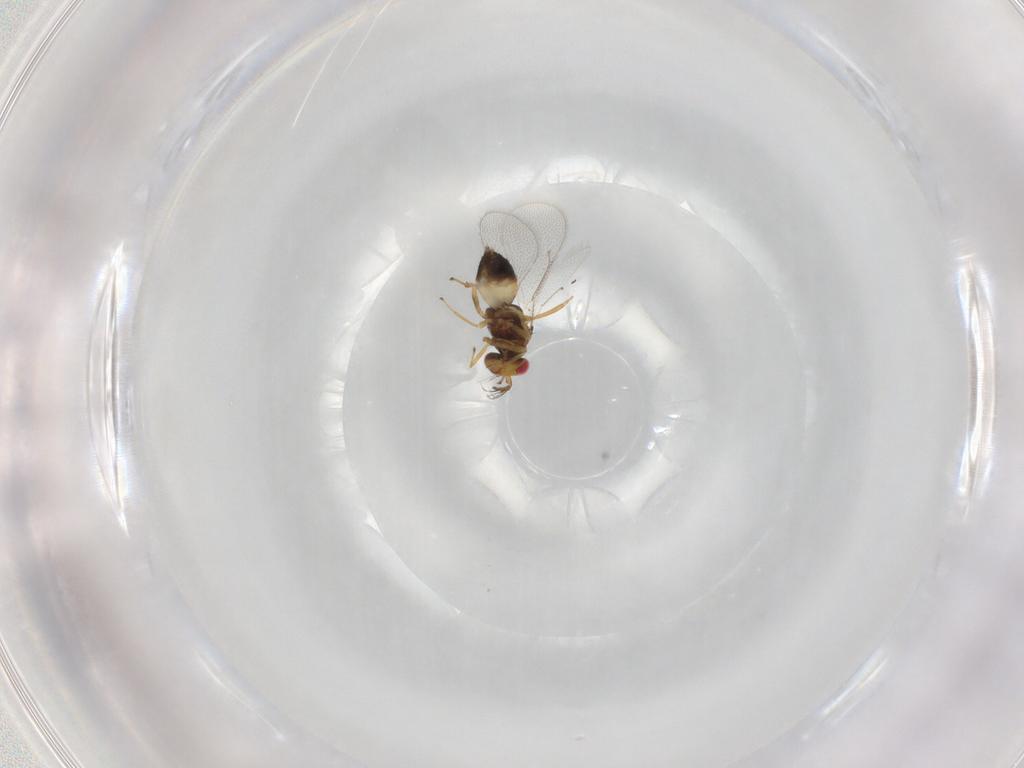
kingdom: Animalia
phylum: Arthropoda
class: Insecta
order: Hymenoptera
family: Eulophidae
